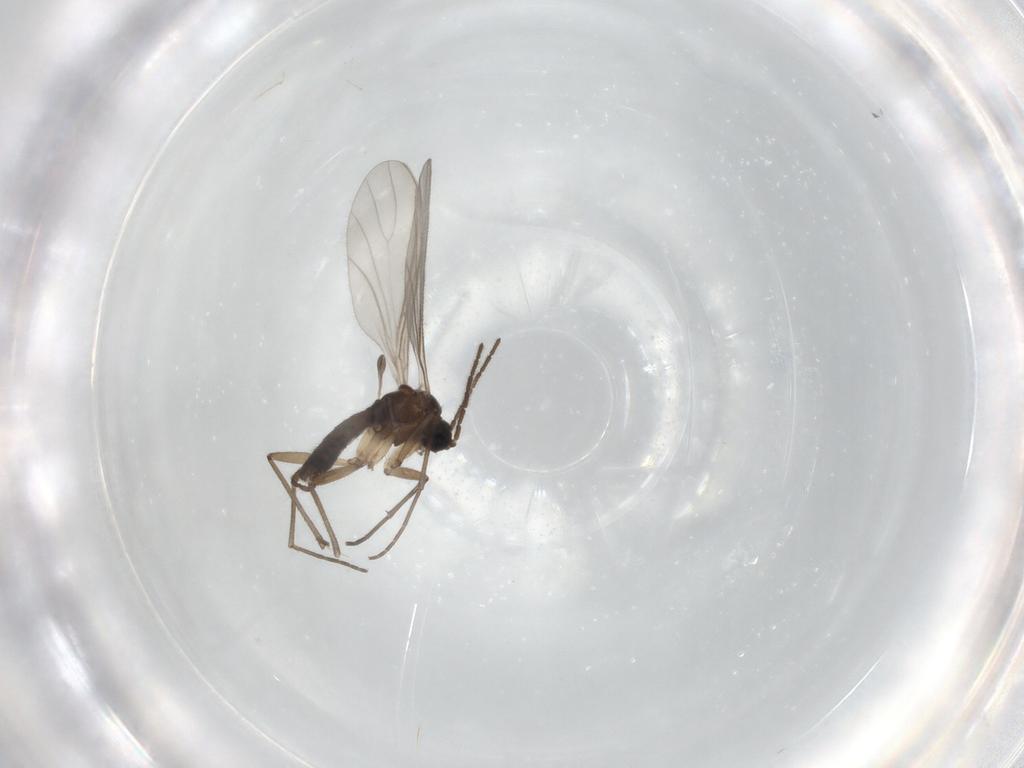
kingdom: Animalia
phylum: Arthropoda
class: Insecta
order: Diptera
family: Sciaridae
